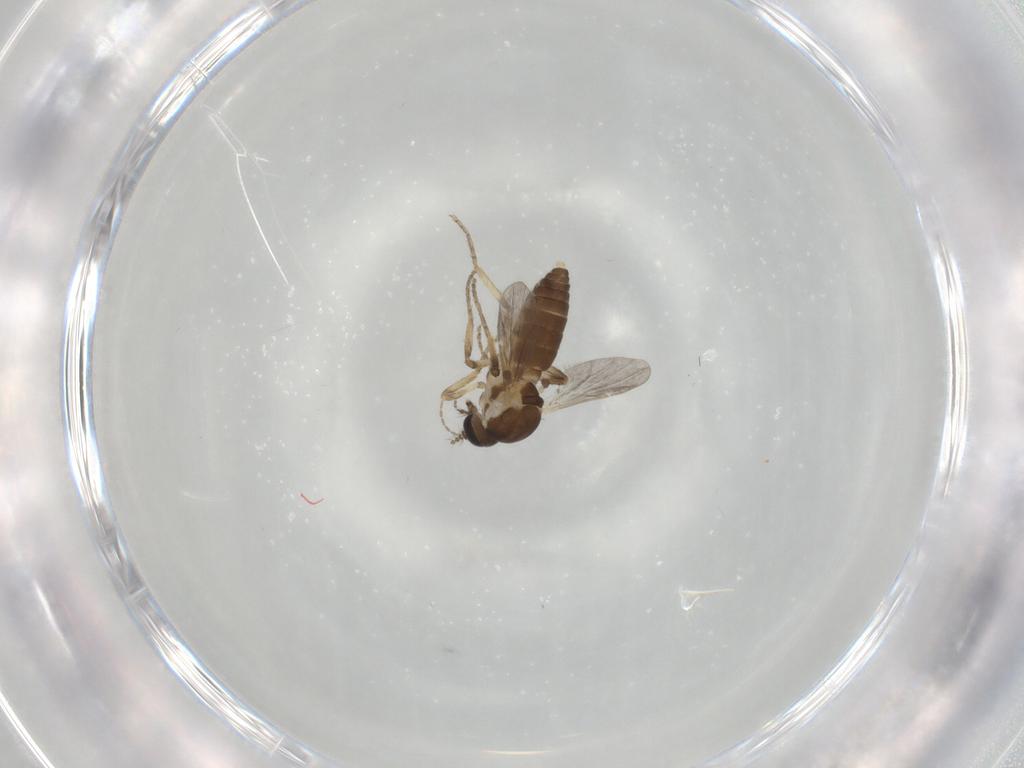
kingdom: Animalia
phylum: Arthropoda
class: Insecta
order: Diptera
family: Ceratopogonidae
